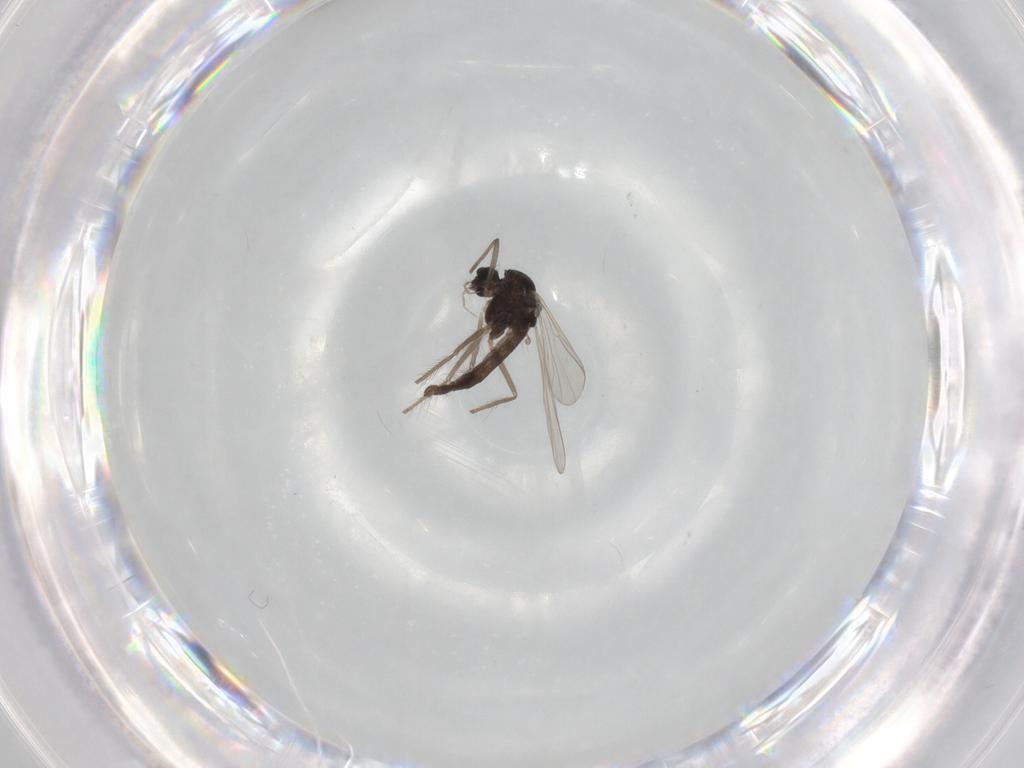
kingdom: Animalia
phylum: Arthropoda
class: Insecta
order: Diptera
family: Chironomidae
